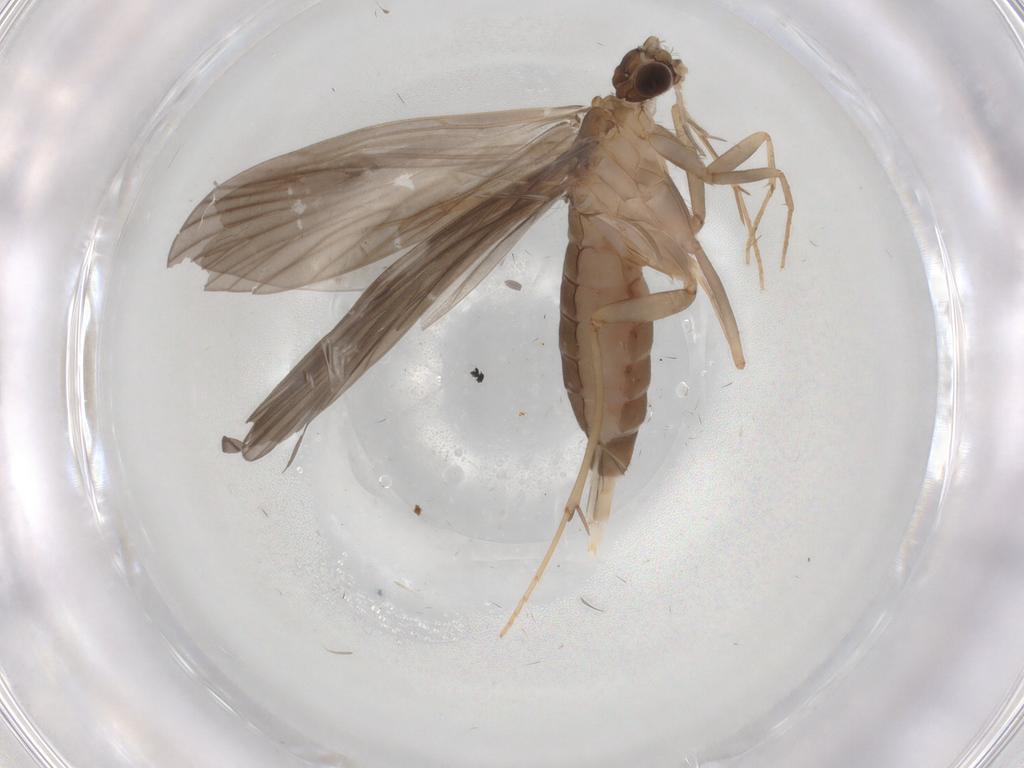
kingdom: Animalia
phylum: Arthropoda
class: Insecta
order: Trichoptera
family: Philopotamidae
